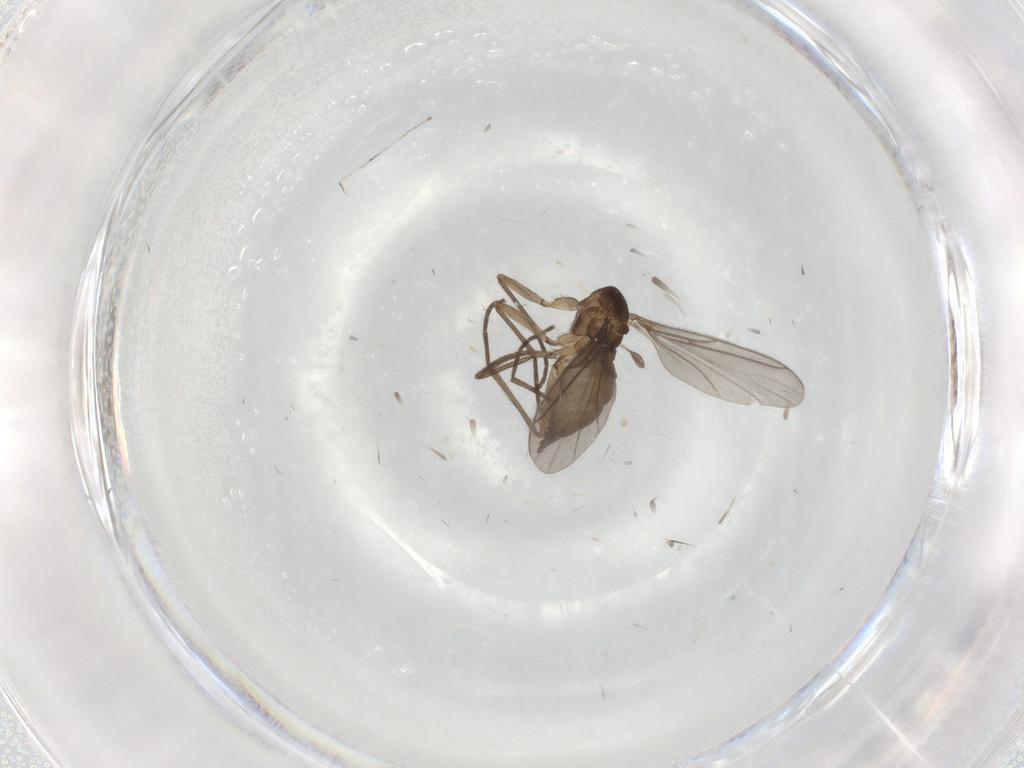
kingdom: Animalia
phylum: Arthropoda
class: Insecta
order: Diptera
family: Sciaridae
